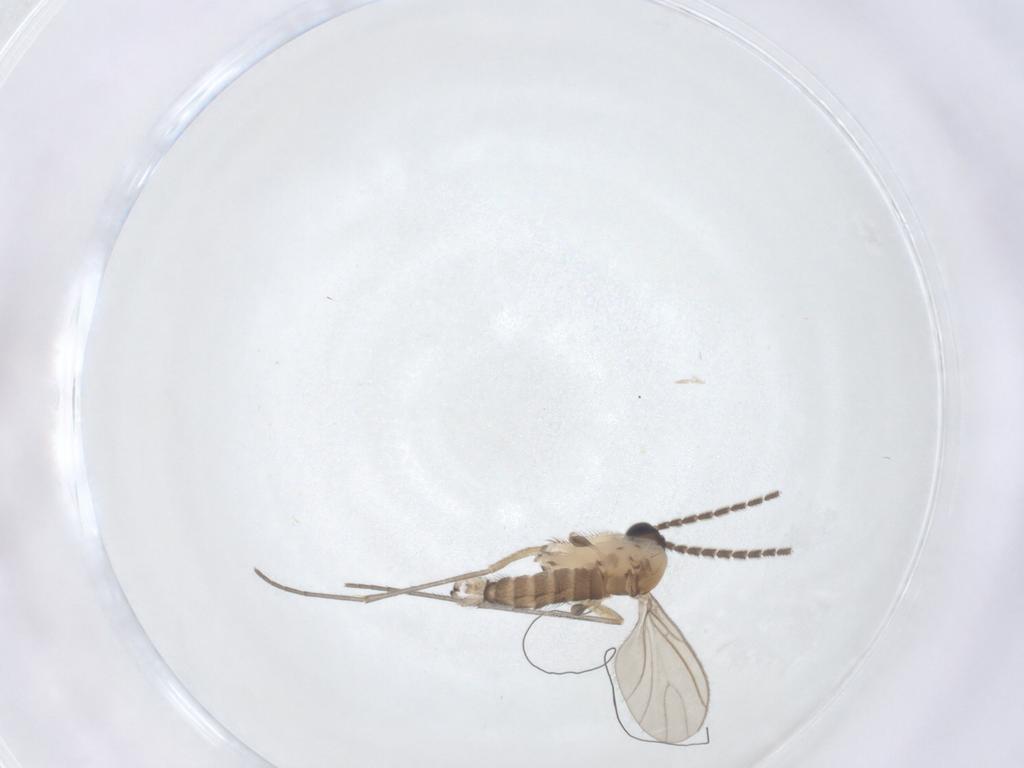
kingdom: Animalia
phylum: Arthropoda
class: Insecta
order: Diptera
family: Sciaridae
